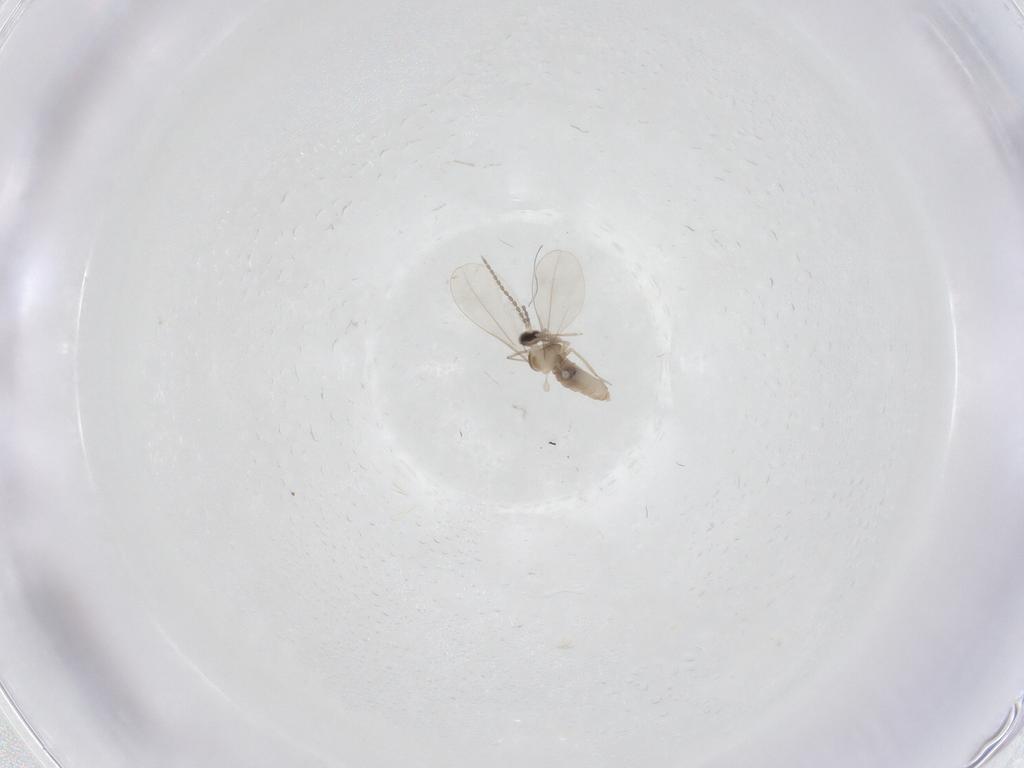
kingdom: Animalia
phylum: Arthropoda
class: Insecta
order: Diptera
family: Cecidomyiidae
